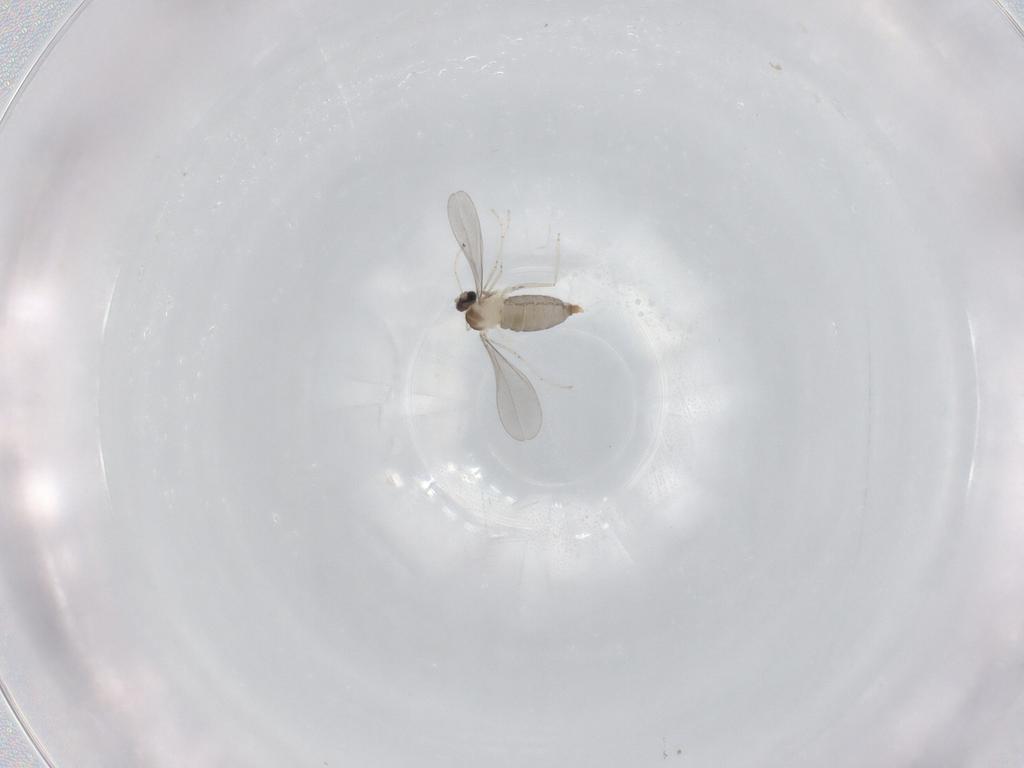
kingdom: Animalia
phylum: Arthropoda
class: Insecta
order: Diptera
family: Cecidomyiidae
